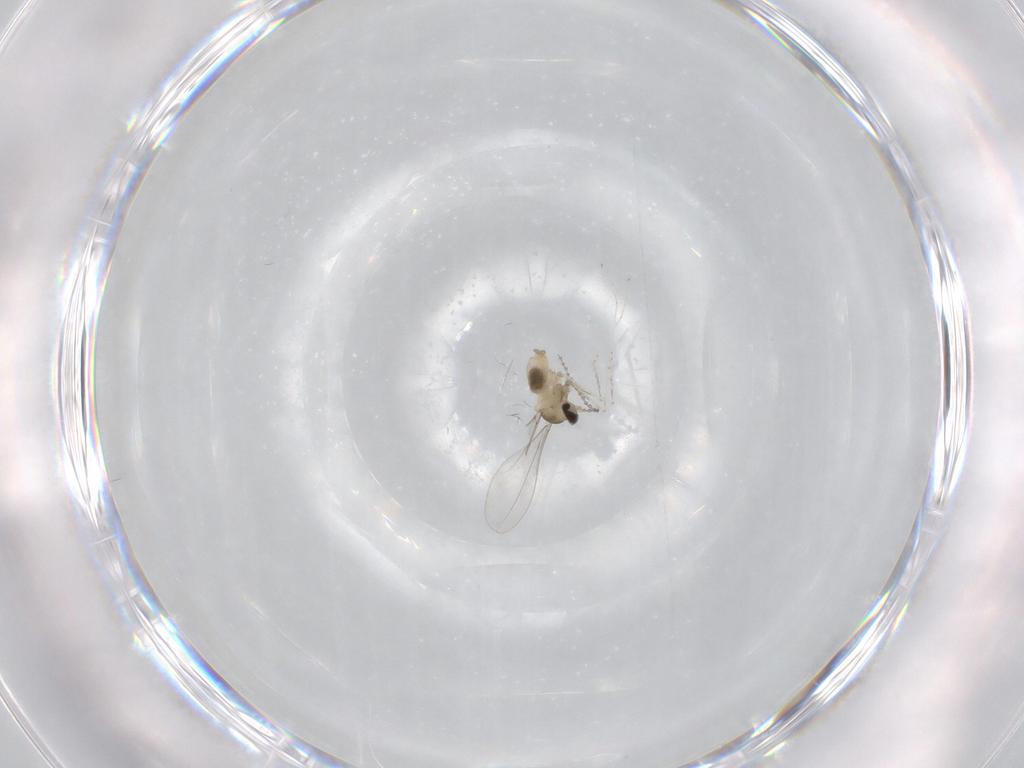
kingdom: Animalia
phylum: Arthropoda
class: Insecta
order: Diptera
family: Cecidomyiidae
